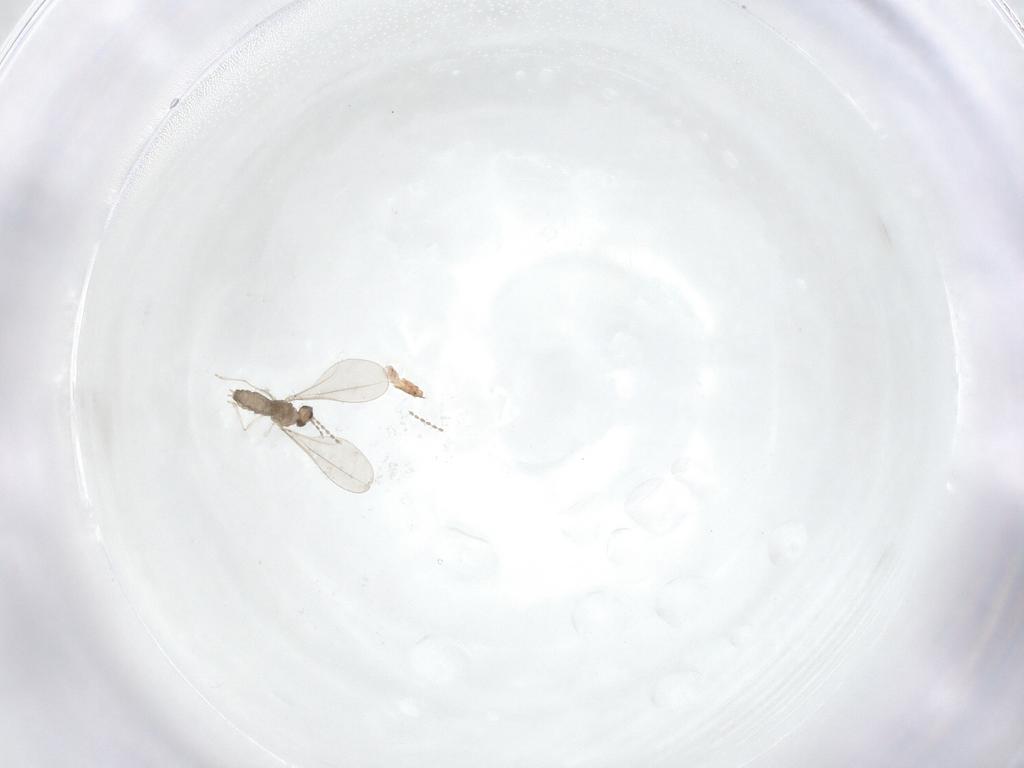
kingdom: Animalia
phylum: Arthropoda
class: Insecta
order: Diptera
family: Cecidomyiidae
